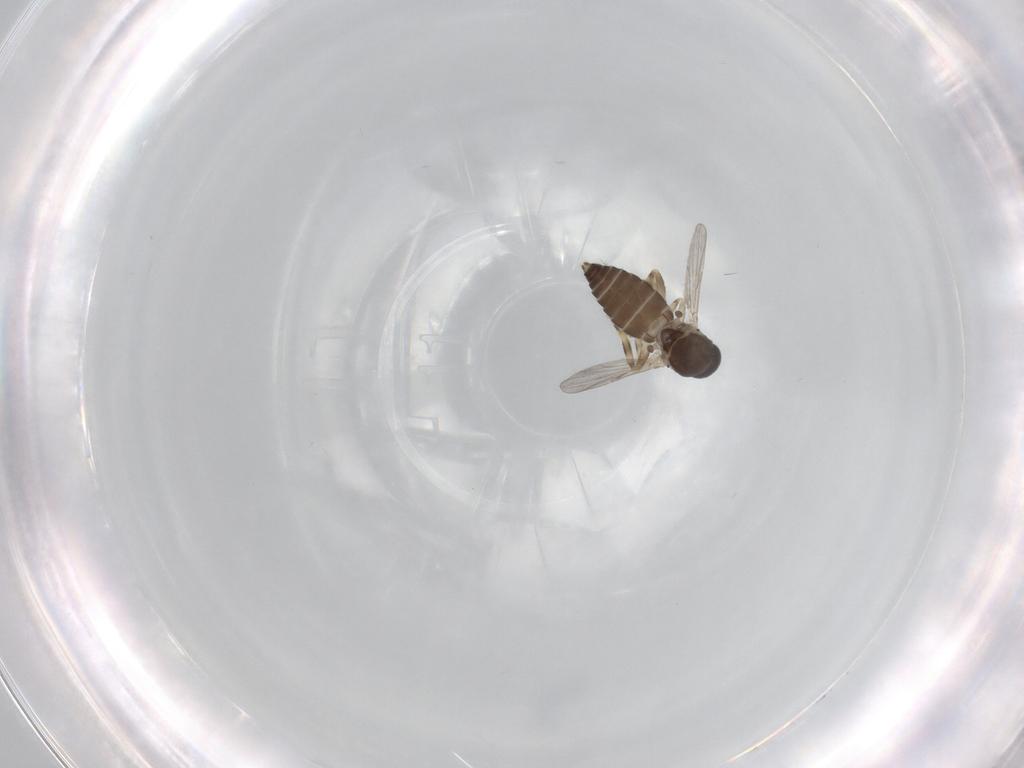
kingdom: Animalia
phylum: Arthropoda
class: Insecta
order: Diptera
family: Ceratopogonidae
